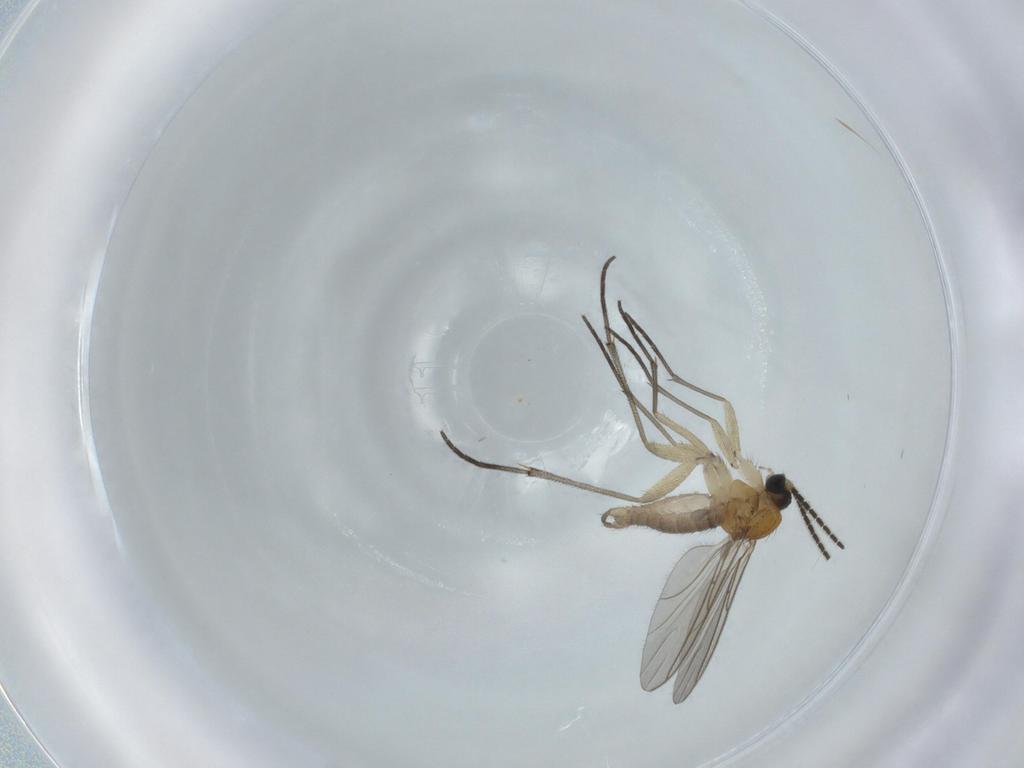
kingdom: Animalia
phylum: Arthropoda
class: Insecta
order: Diptera
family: Sciaridae
